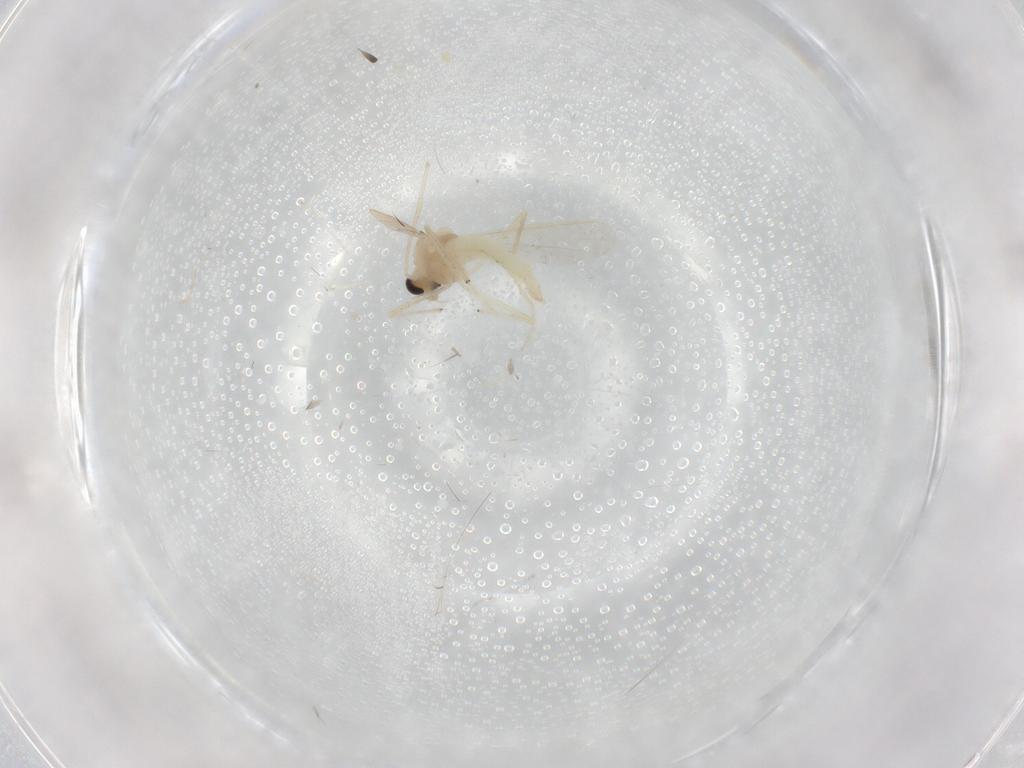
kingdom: Animalia
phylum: Arthropoda
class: Insecta
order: Diptera
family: Chironomidae
